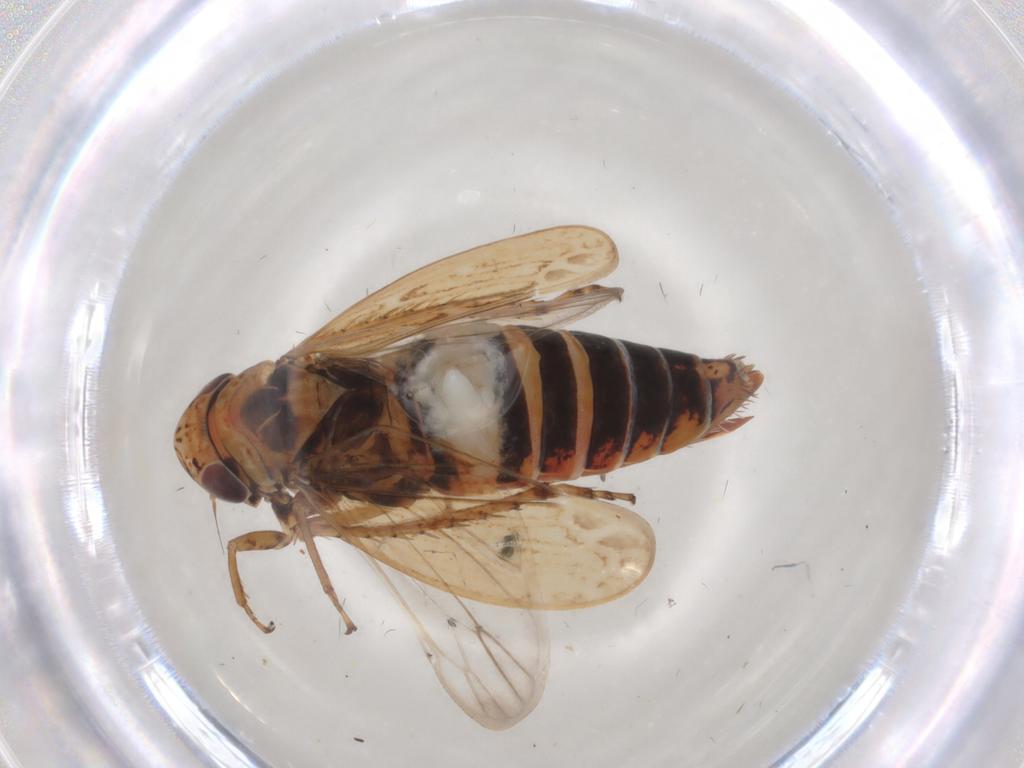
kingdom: Animalia
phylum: Arthropoda
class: Insecta
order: Hemiptera
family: Cicadellidae
